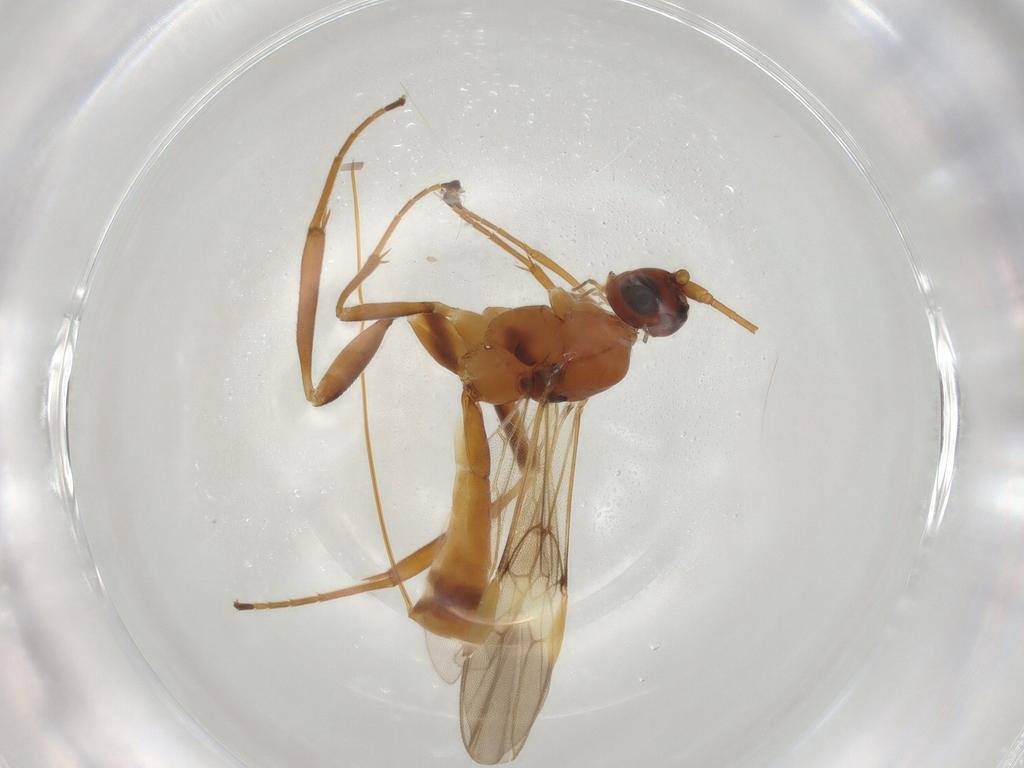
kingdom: Animalia
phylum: Arthropoda
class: Insecta
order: Hymenoptera
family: Braconidae
